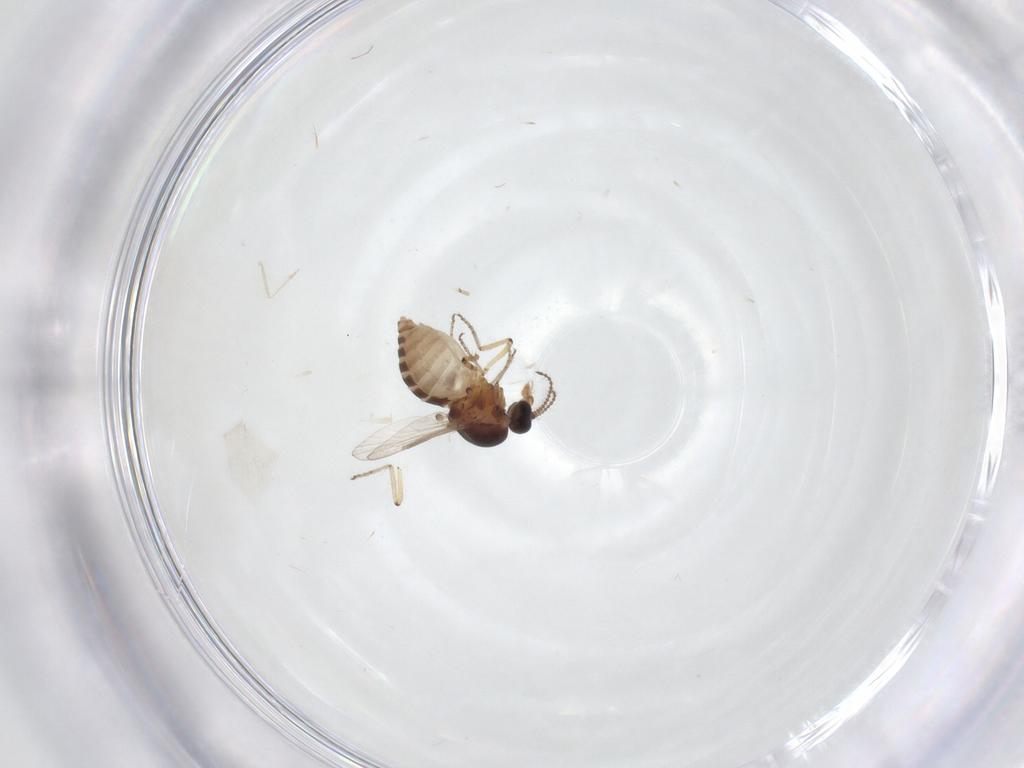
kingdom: Animalia
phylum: Arthropoda
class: Insecta
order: Diptera
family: Ceratopogonidae
